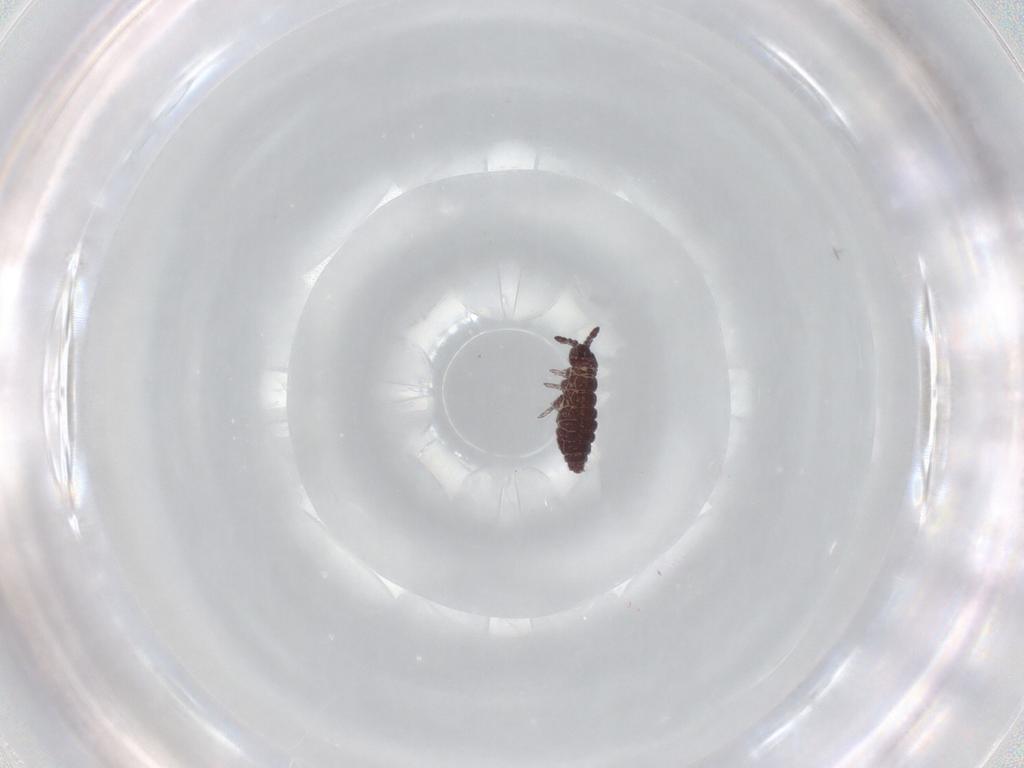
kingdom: Animalia
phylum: Arthropoda
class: Collembola
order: Poduromorpha
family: Hypogastruridae
